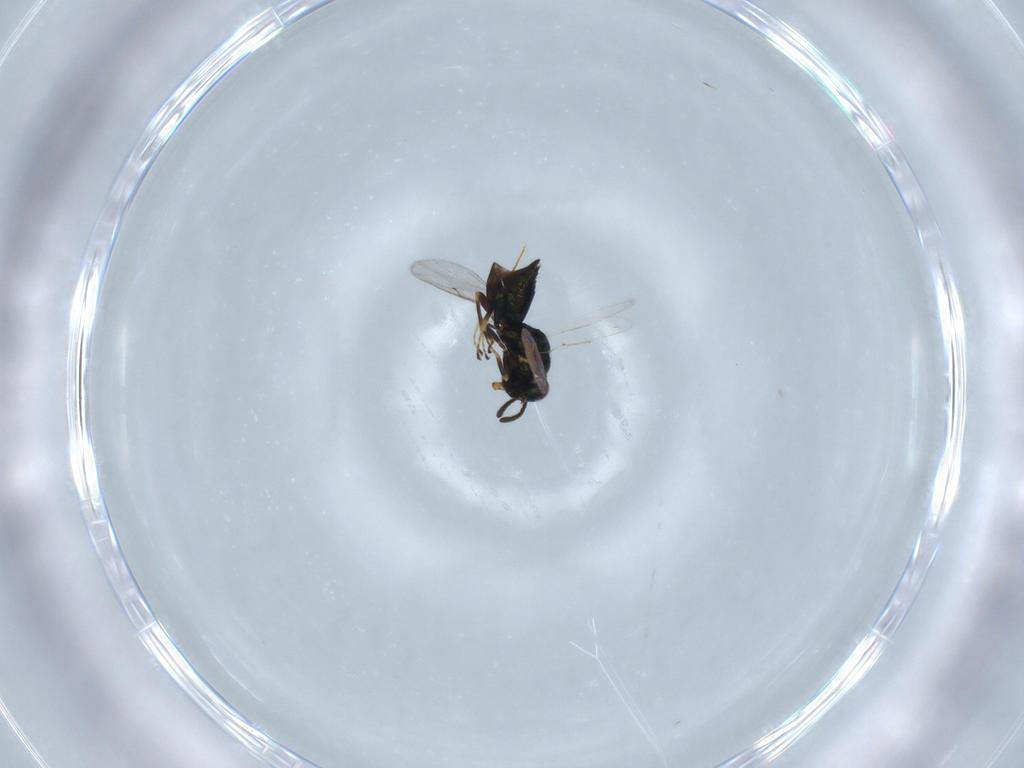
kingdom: Animalia
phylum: Arthropoda
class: Insecta
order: Hymenoptera
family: Pteromalidae
